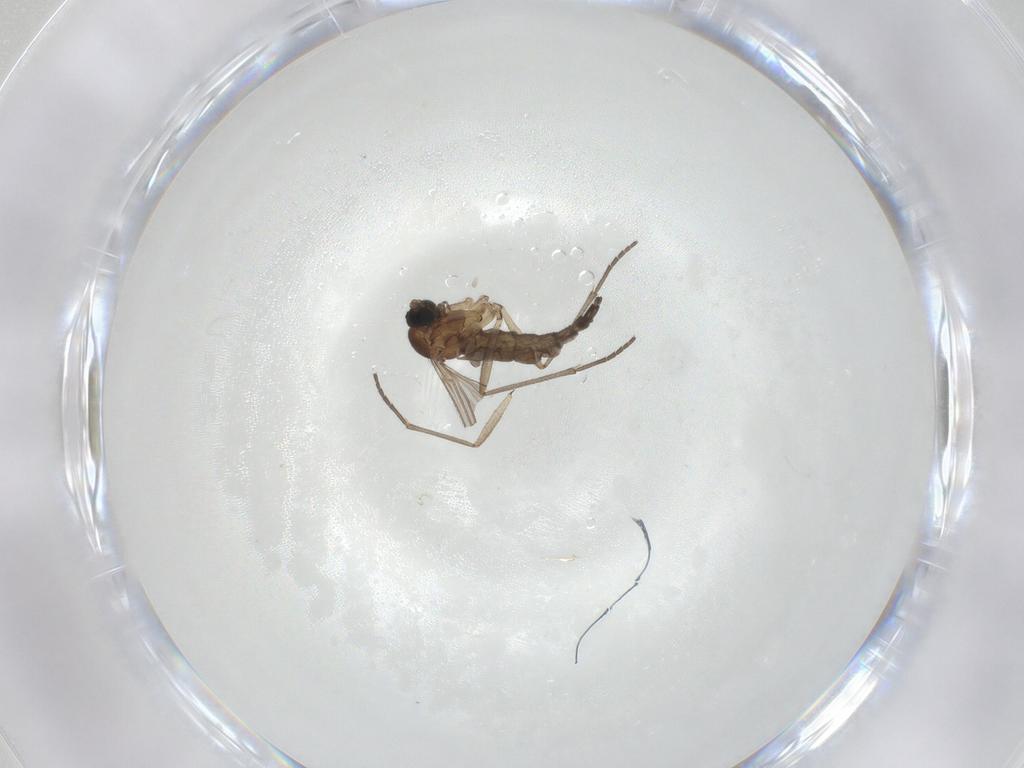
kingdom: Animalia
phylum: Arthropoda
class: Insecta
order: Diptera
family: Sciaridae
